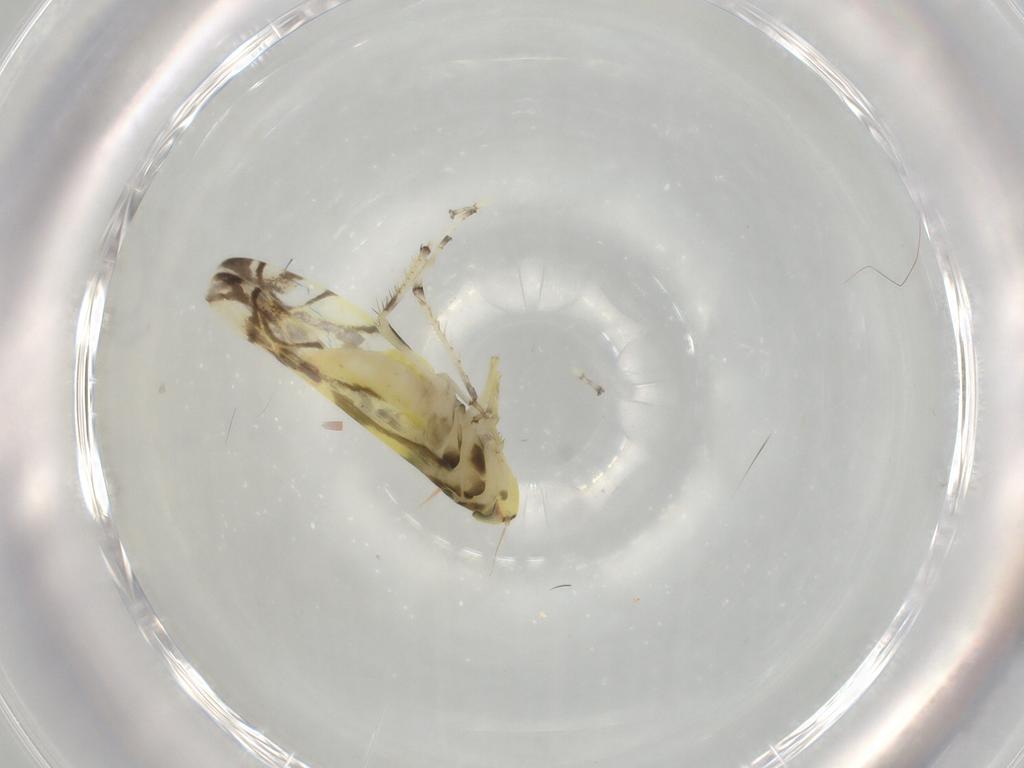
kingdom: Animalia
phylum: Arthropoda
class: Insecta
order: Hemiptera
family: Cicadellidae
